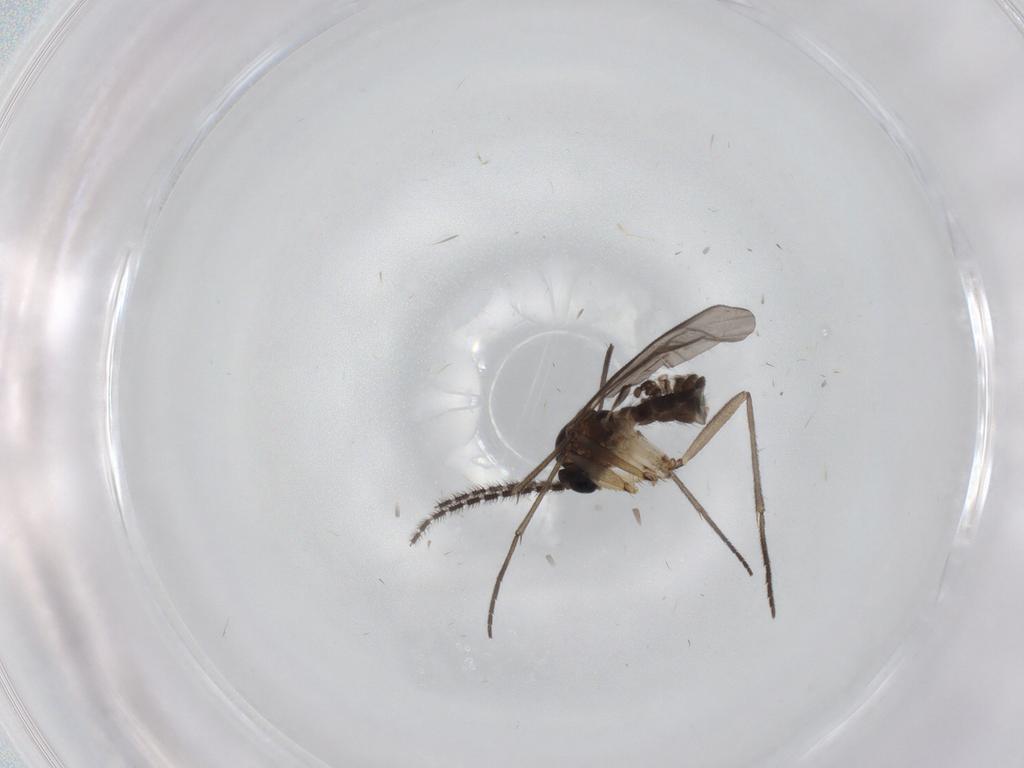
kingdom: Animalia
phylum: Arthropoda
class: Insecta
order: Diptera
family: Sciaridae
